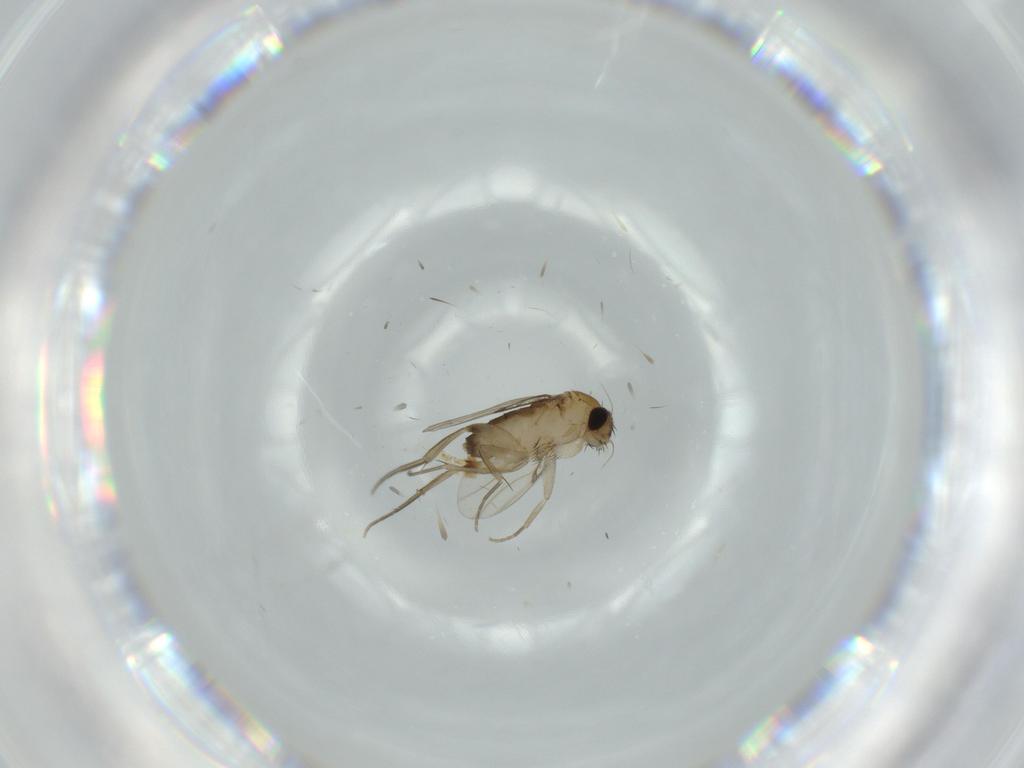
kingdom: Animalia
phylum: Arthropoda
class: Insecta
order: Diptera
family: Phoridae
